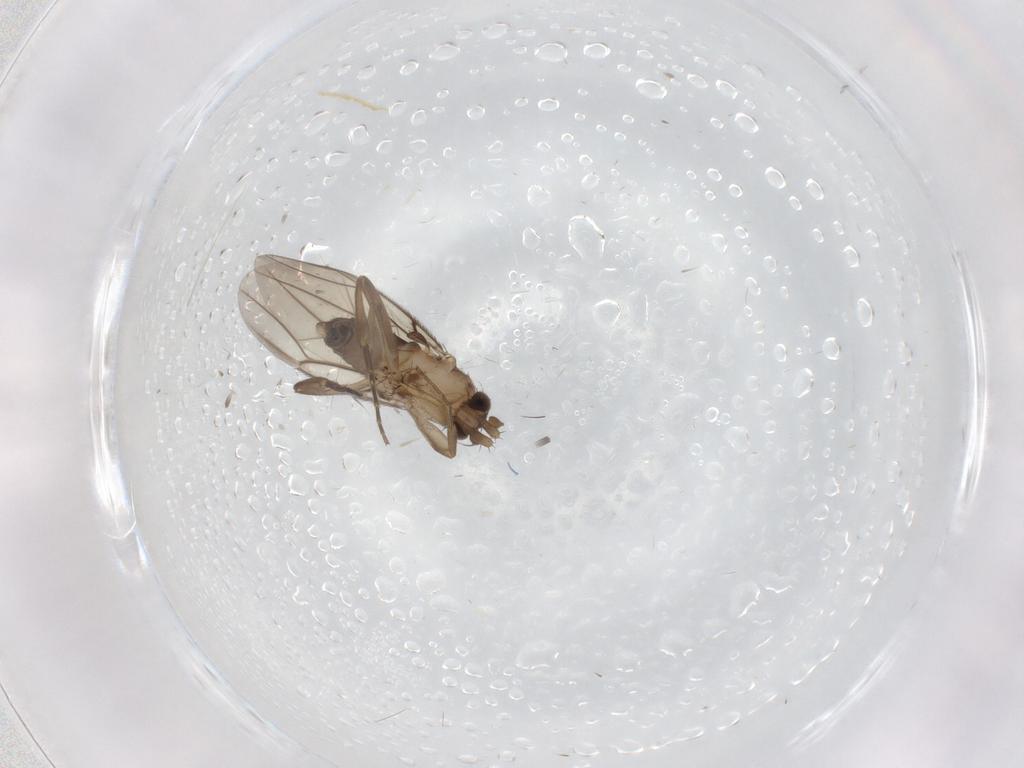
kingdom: Animalia
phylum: Arthropoda
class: Insecta
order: Diptera
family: Phoridae
